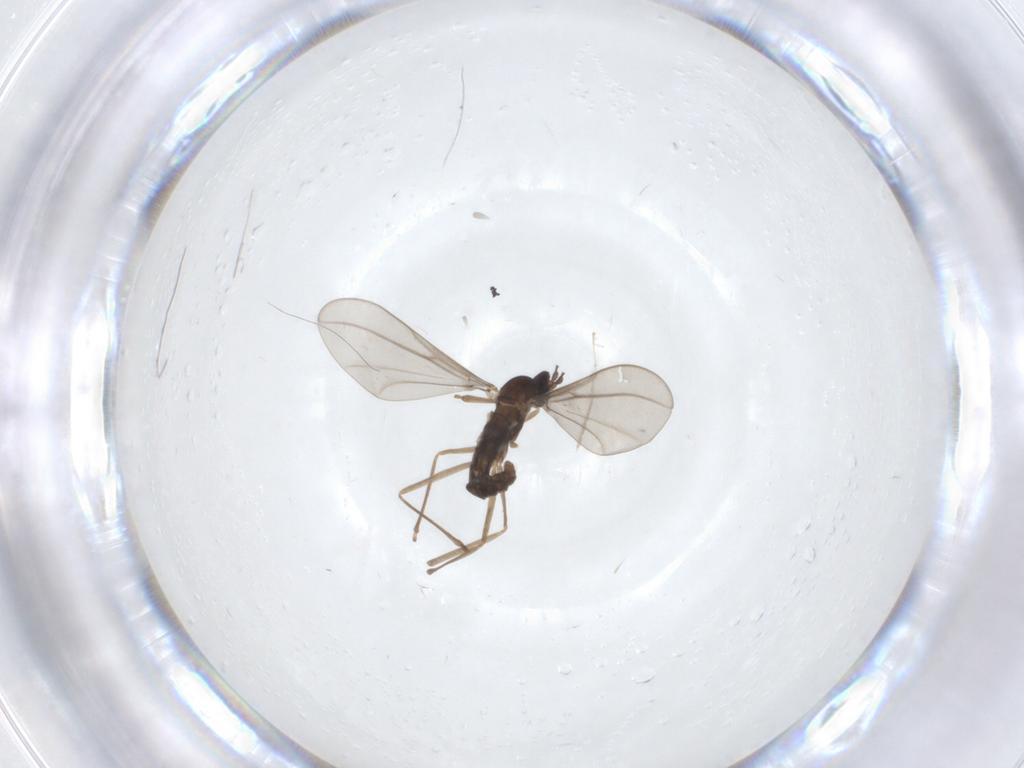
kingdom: Animalia
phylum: Arthropoda
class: Insecta
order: Diptera
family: Cecidomyiidae
